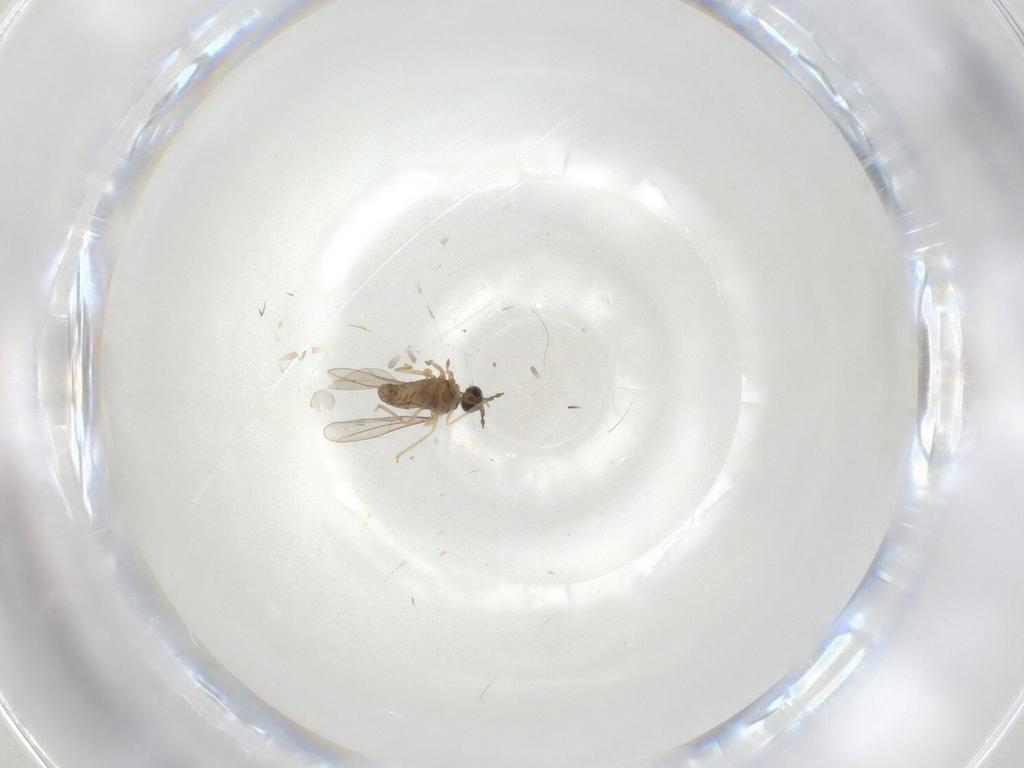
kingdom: Animalia
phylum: Arthropoda
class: Insecta
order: Diptera
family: Cecidomyiidae
